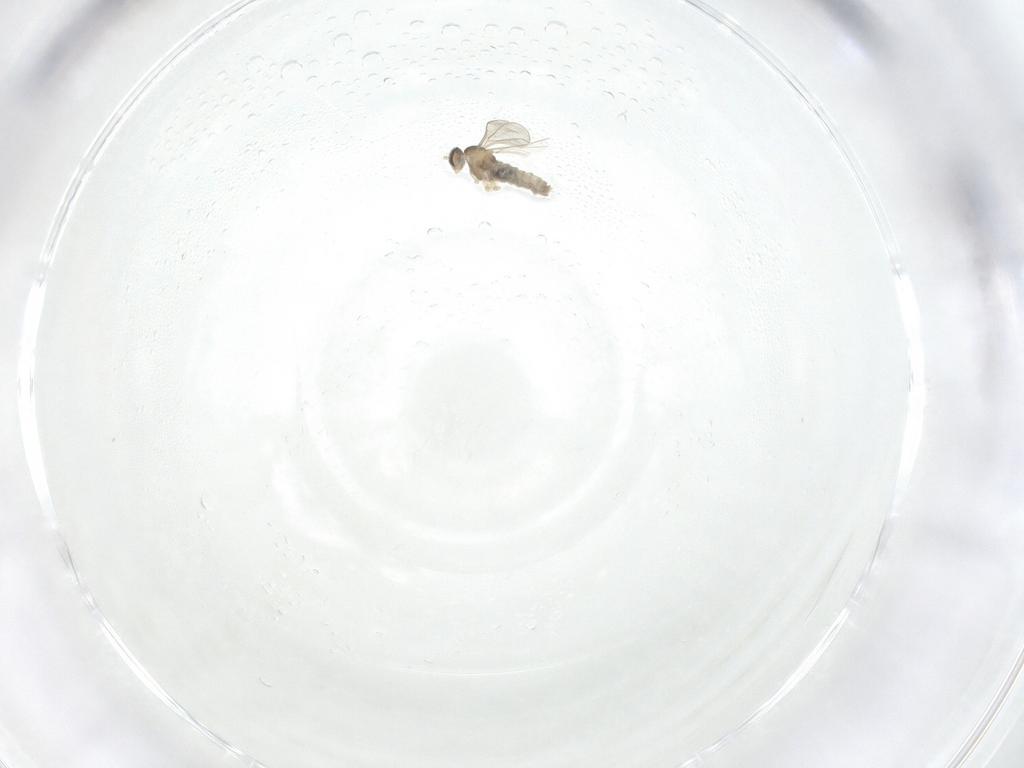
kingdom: Animalia
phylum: Arthropoda
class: Insecta
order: Diptera
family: Cecidomyiidae
